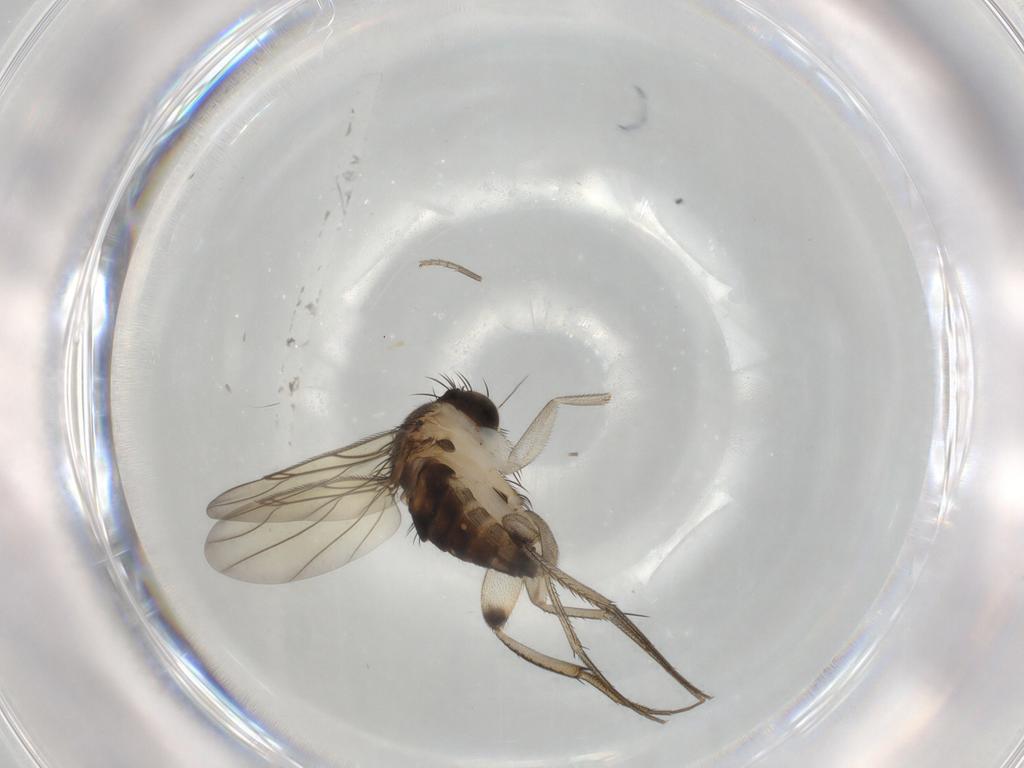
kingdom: Animalia
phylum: Arthropoda
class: Insecta
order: Diptera
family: Phoridae
